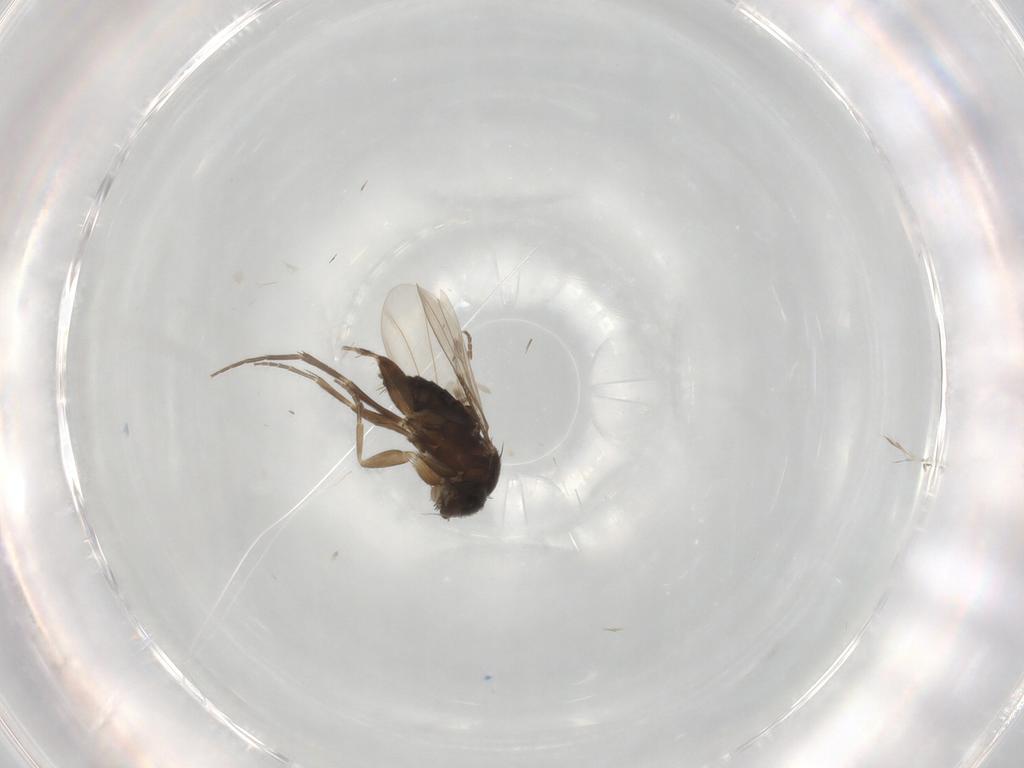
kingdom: Animalia
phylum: Arthropoda
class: Insecta
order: Diptera
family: Phoridae
